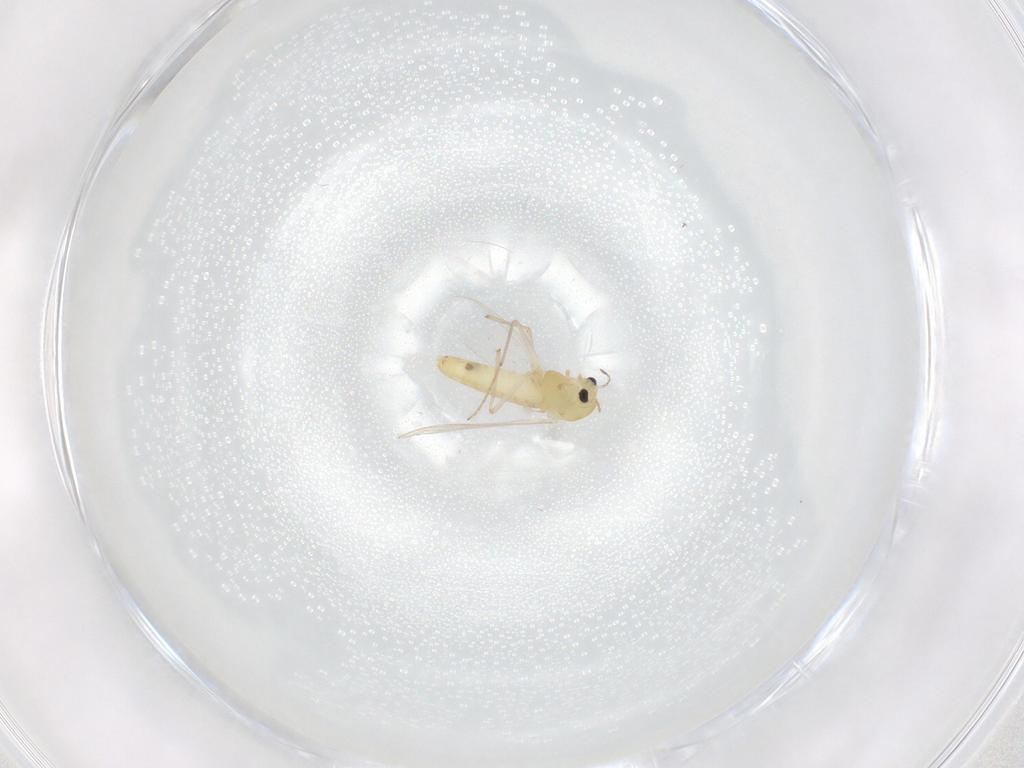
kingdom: Animalia
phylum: Arthropoda
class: Insecta
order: Diptera
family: Chironomidae
